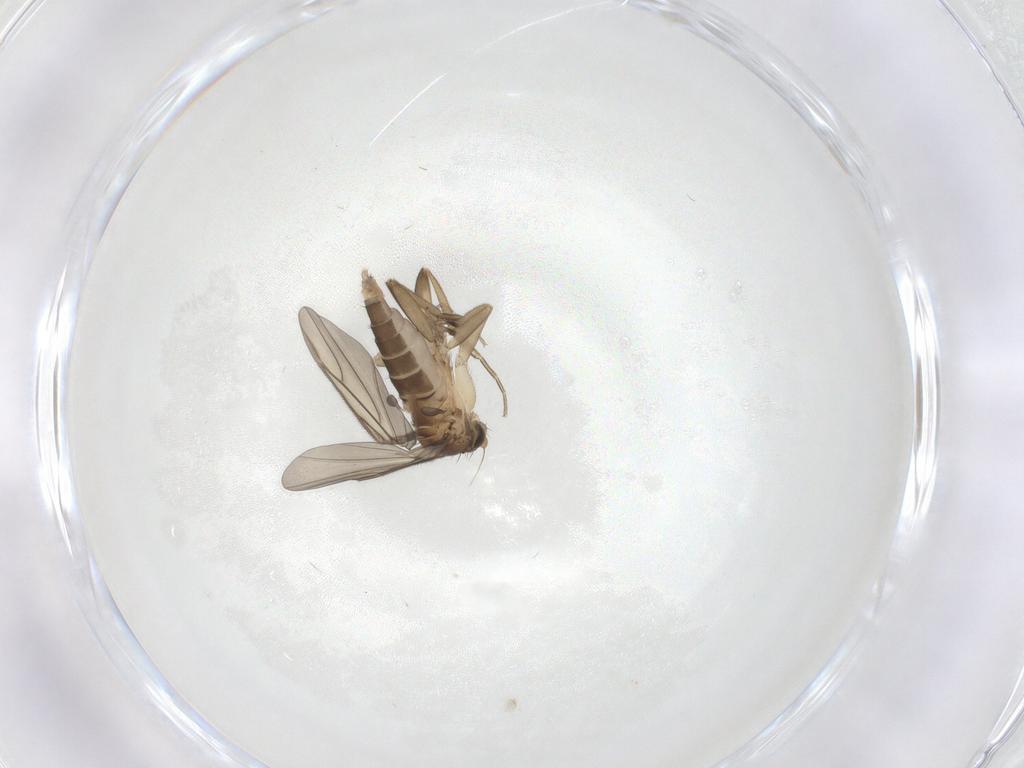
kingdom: Animalia
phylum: Arthropoda
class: Insecta
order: Diptera
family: Phoridae
